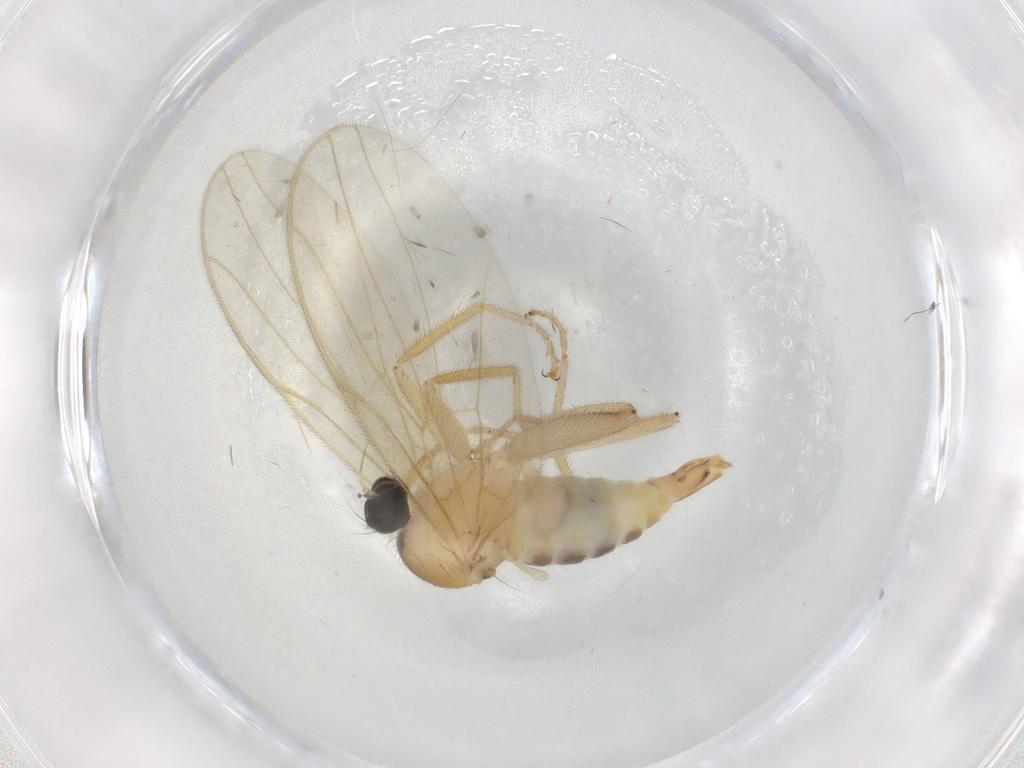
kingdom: Animalia
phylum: Arthropoda
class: Insecta
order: Diptera
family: Hybotidae
